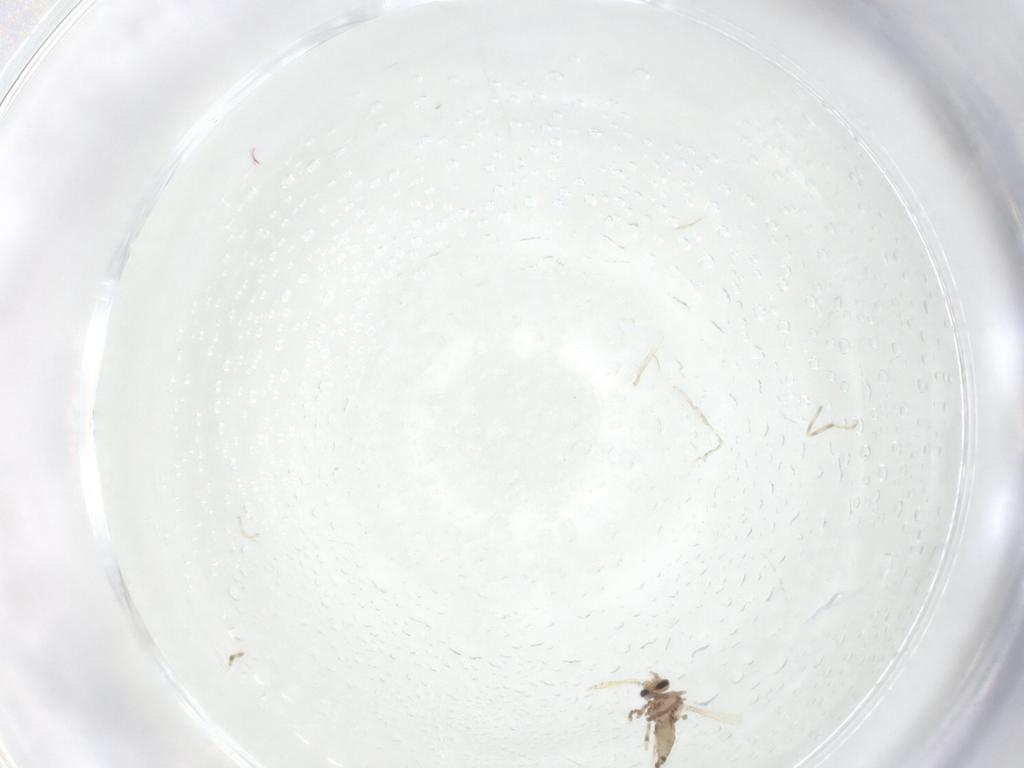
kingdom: Animalia
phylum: Arthropoda
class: Insecta
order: Diptera
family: Ceratopogonidae
